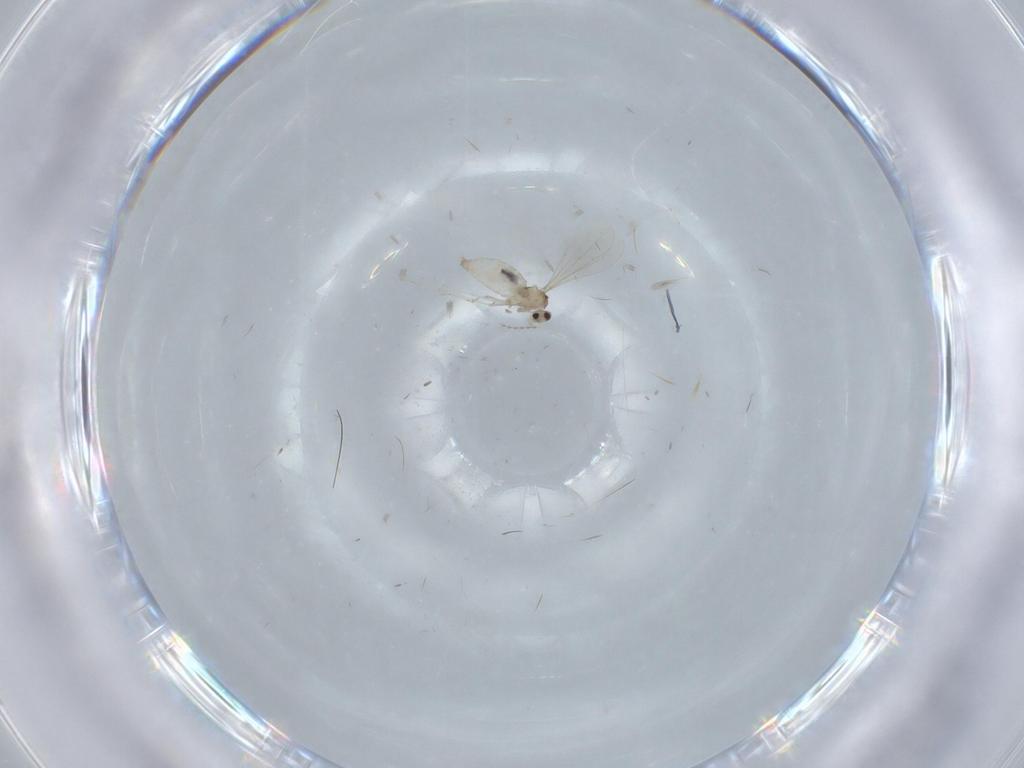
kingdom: Animalia
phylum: Arthropoda
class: Insecta
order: Diptera
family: Cecidomyiidae
